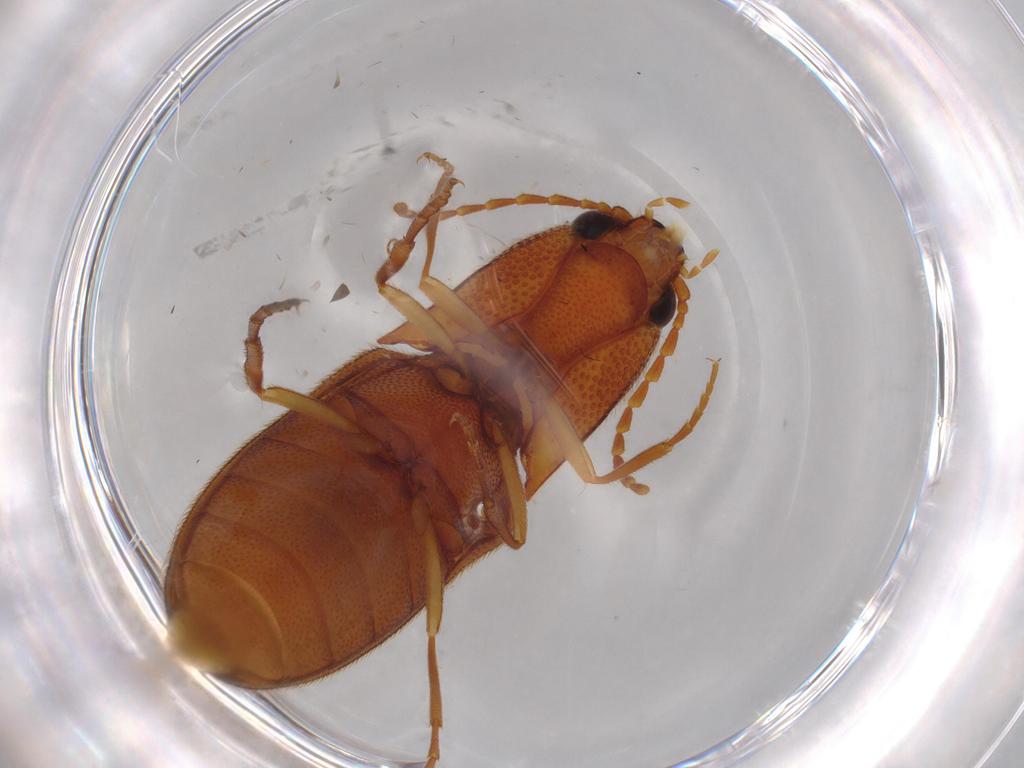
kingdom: Animalia
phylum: Arthropoda
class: Insecta
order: Coleoptera
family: Elateridae
